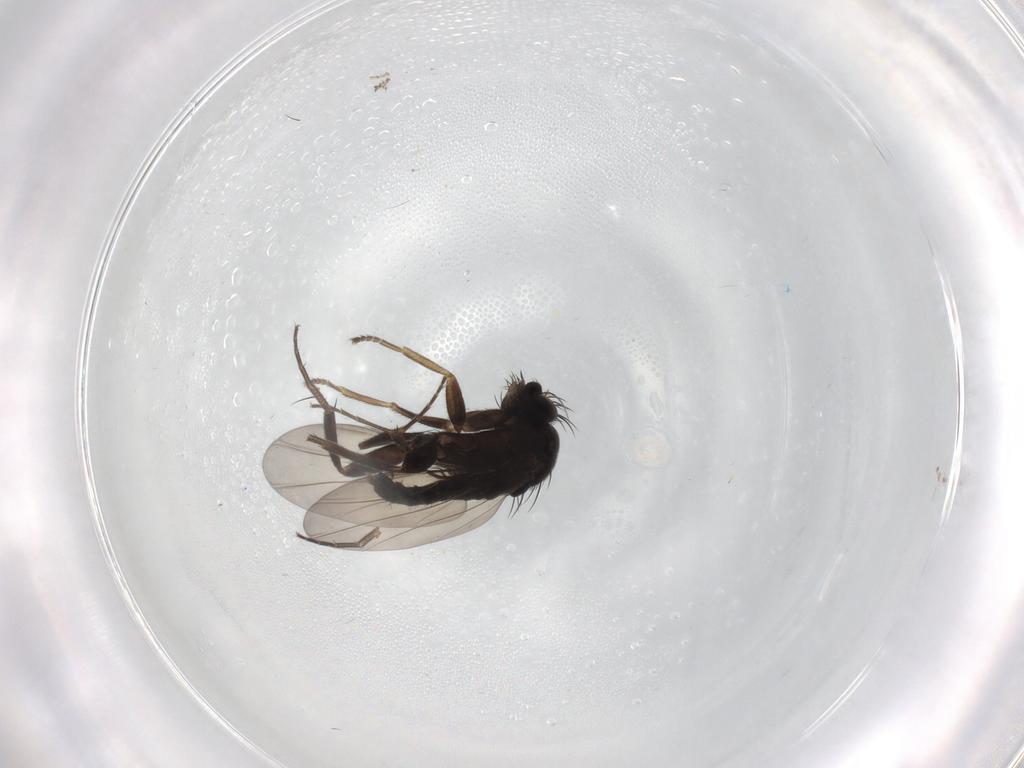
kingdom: Animalia
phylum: Arthropoda
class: Insecta
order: Diptera
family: Phoridae
